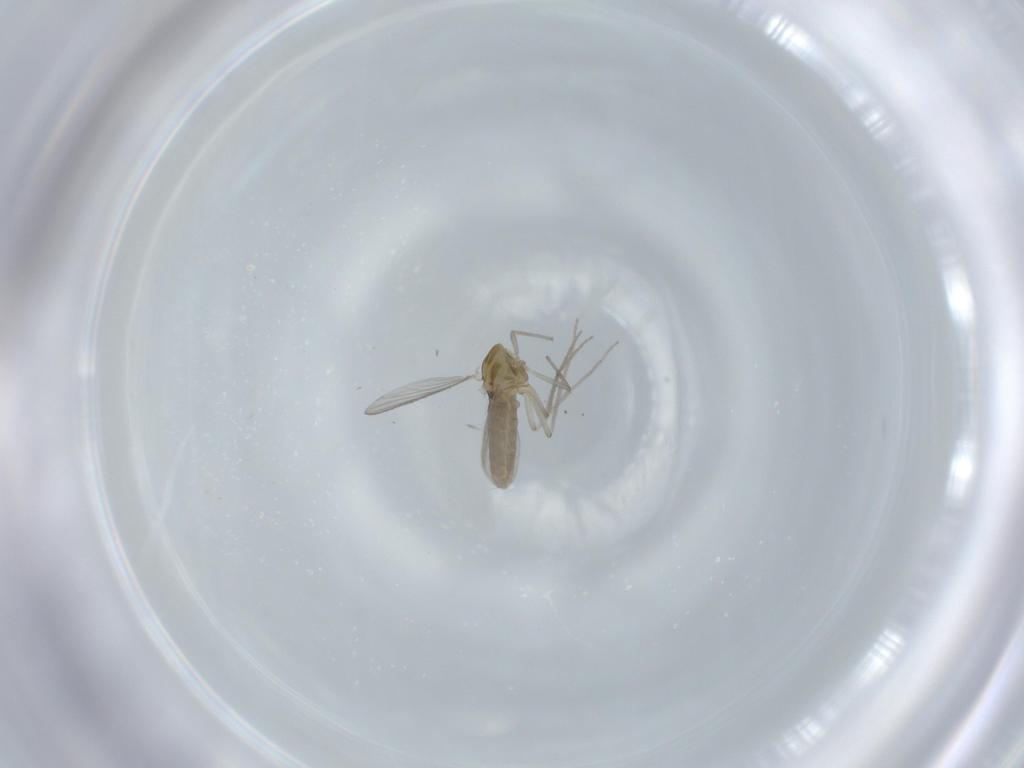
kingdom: Animalia
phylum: Arthropoda
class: Insecta
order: Diptera
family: Chironomidae
